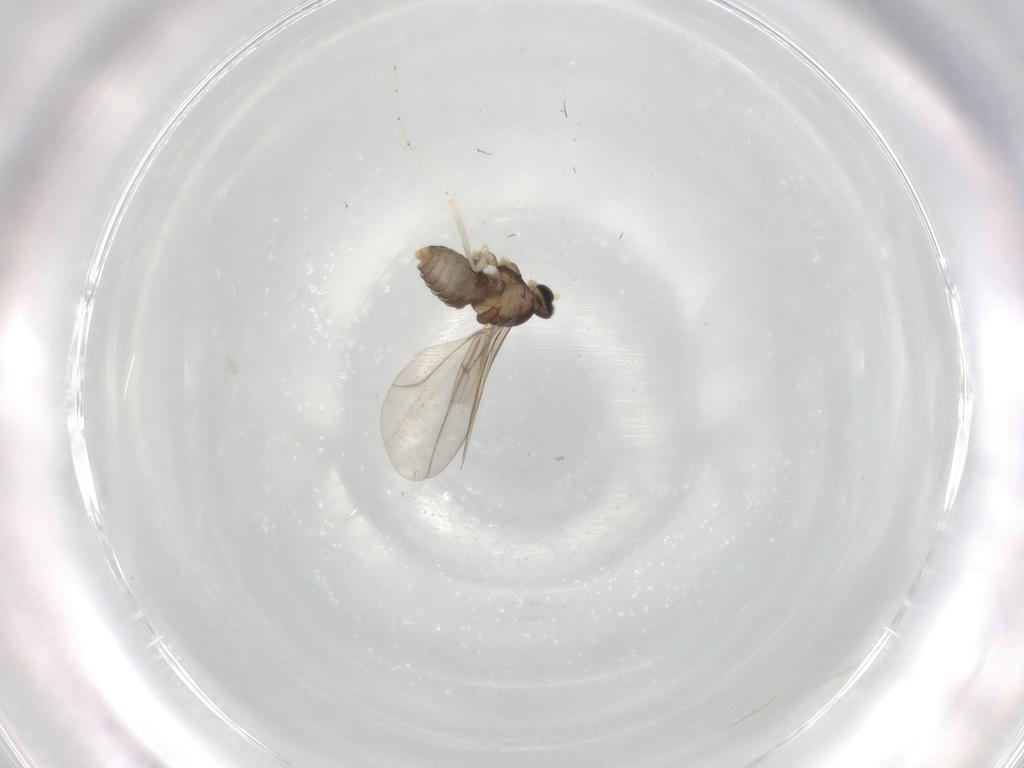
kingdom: Animalia
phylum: Arthropoda
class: Insecta
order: Diptera
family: Cecidomyiidae
